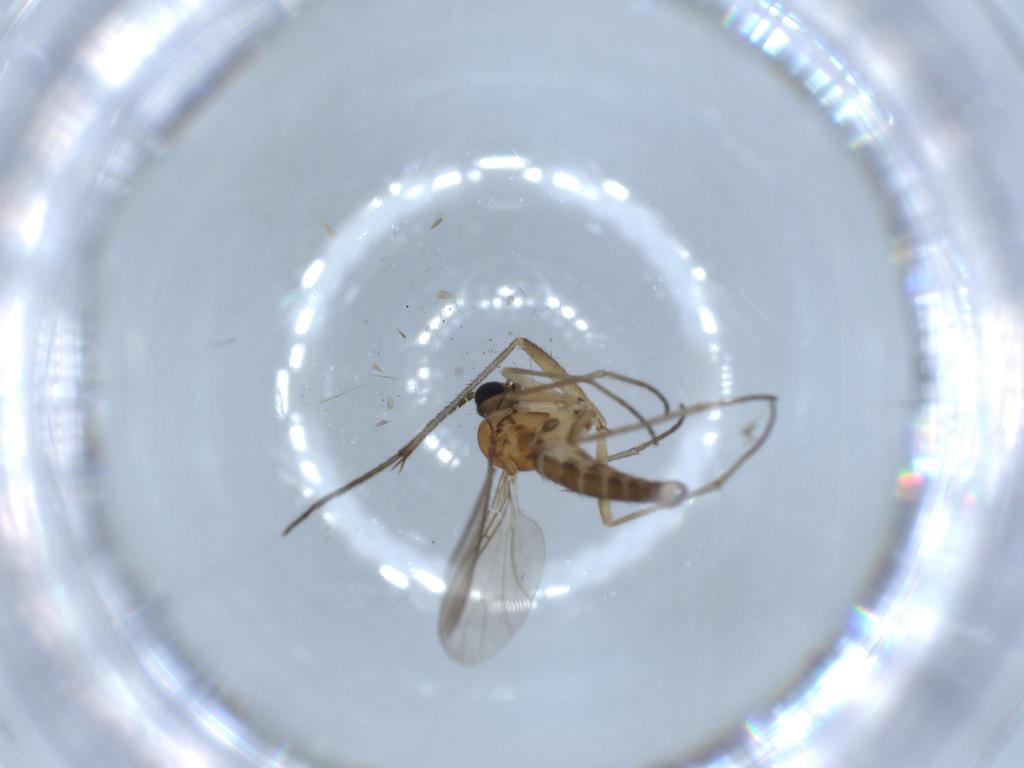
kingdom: Animalia
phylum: Arthropoda
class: Insecta
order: Diptera
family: Sciaridae
